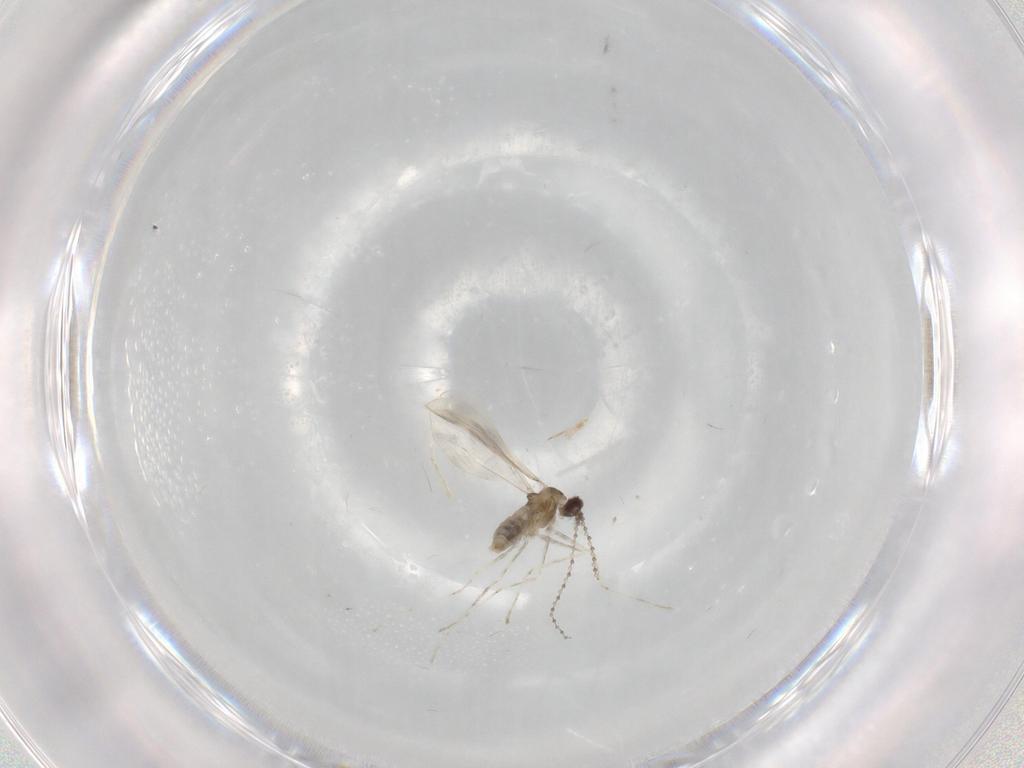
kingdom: Animalia
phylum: Arthropoda
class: Insecta
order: Diptera
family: Cecidomyiidae
